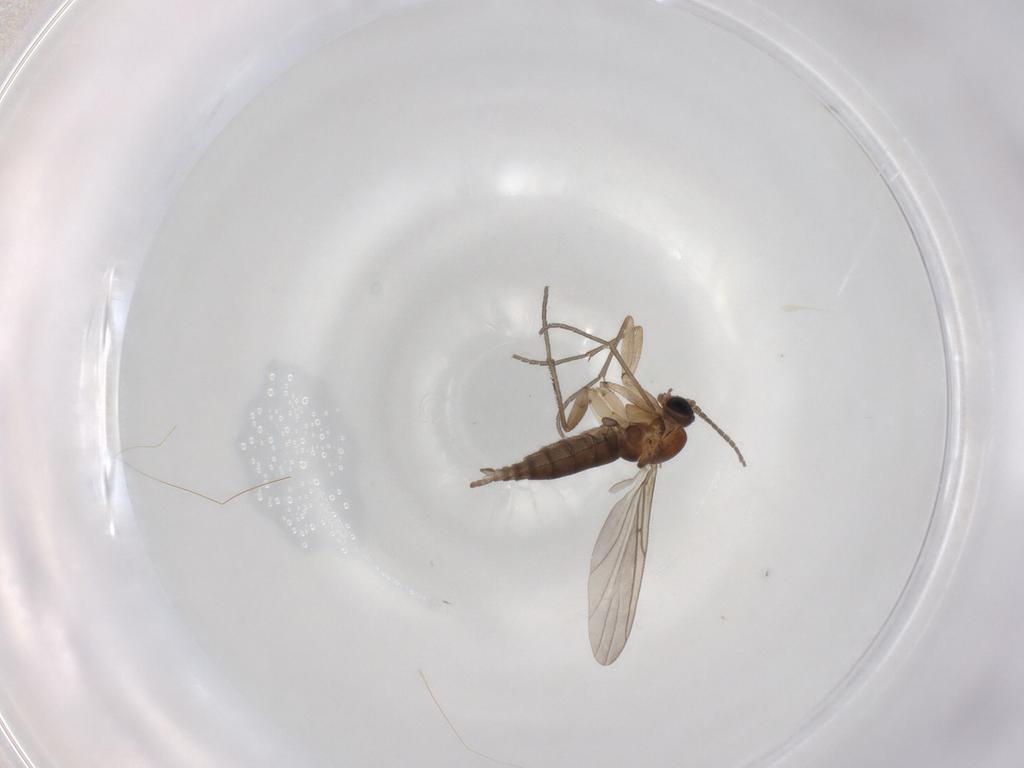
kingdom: Animalia
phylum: Arthropoda
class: Insecta
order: Diptera
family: Sciaridae
